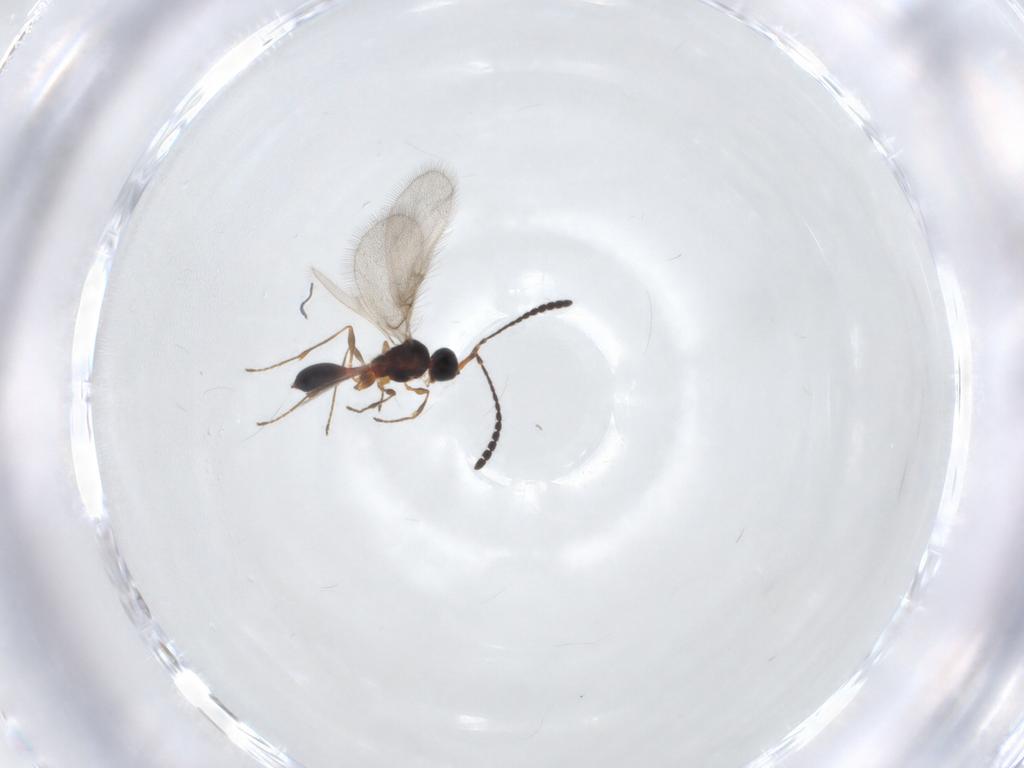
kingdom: Animalia
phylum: Arthropoda
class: Insecta
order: Hymenoptera
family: Diapriidae
